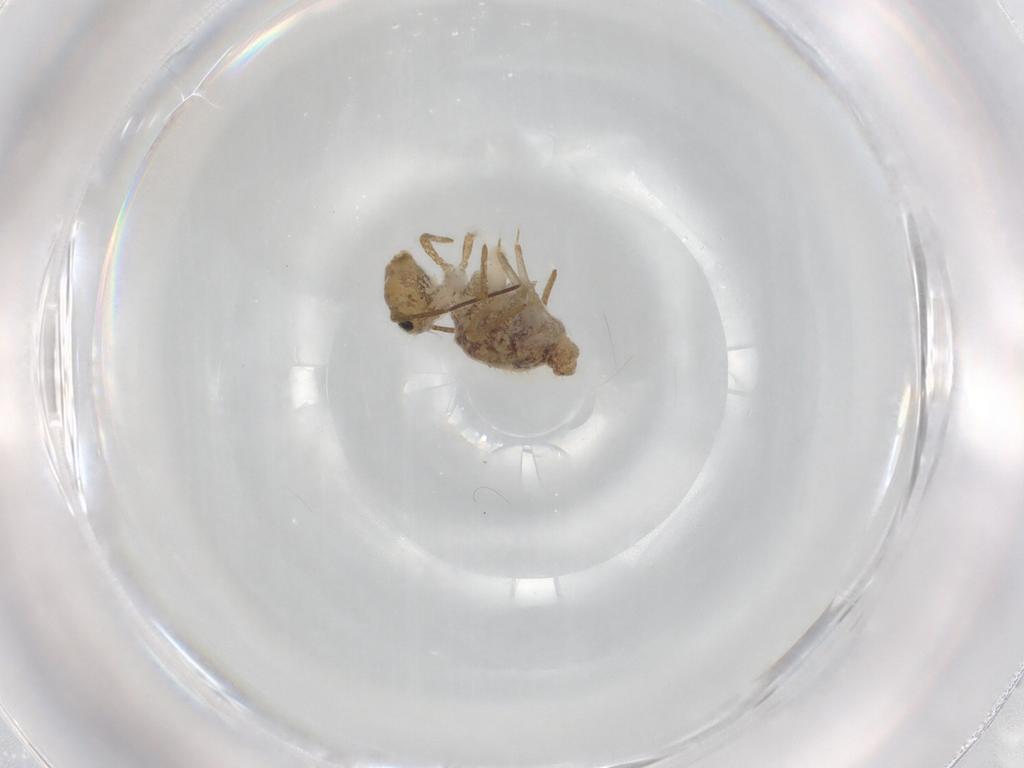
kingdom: Animalia
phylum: Arthropoda
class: Collembola
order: Symphypleona
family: Sminthuridae
